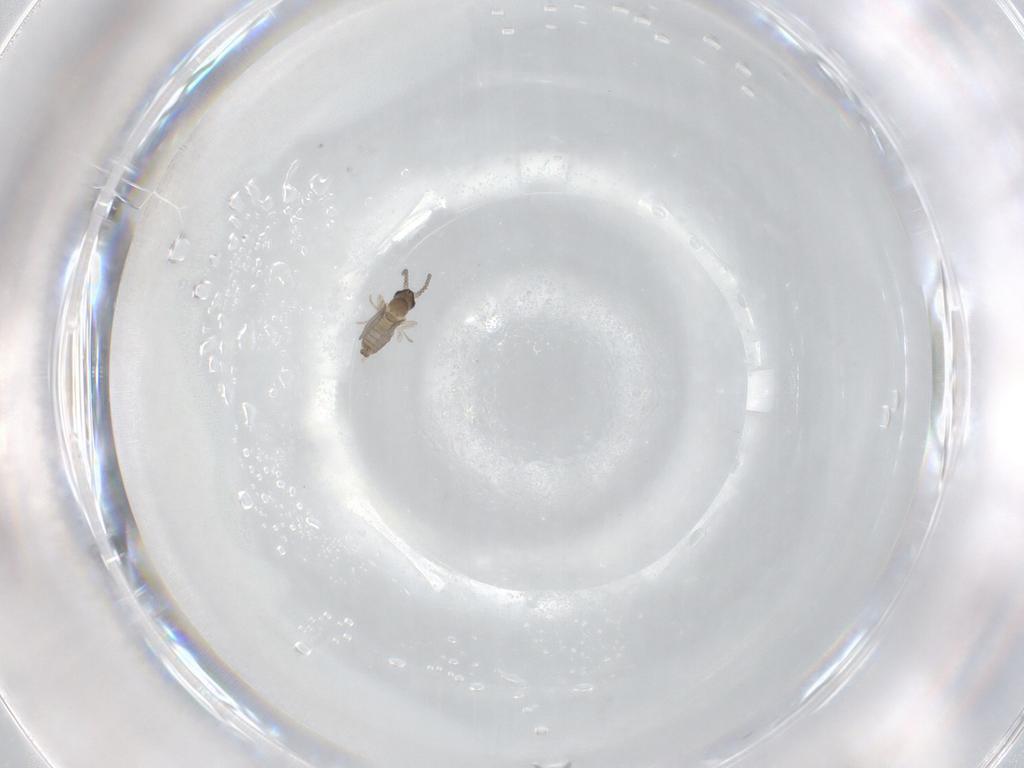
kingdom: Animalia
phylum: Arthropoda
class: Insecta
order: Diptera
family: Cecidomyiidae
